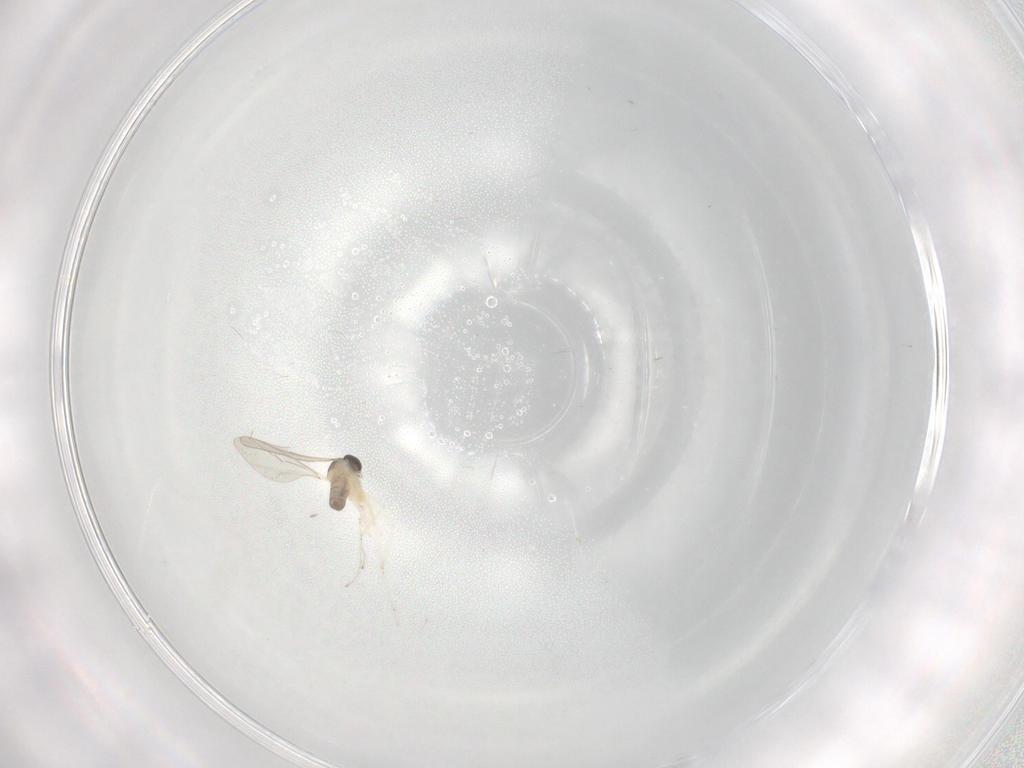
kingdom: Animalia
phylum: Arthropoda
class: Insecta
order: Diptera
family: Cecidomyiidae
